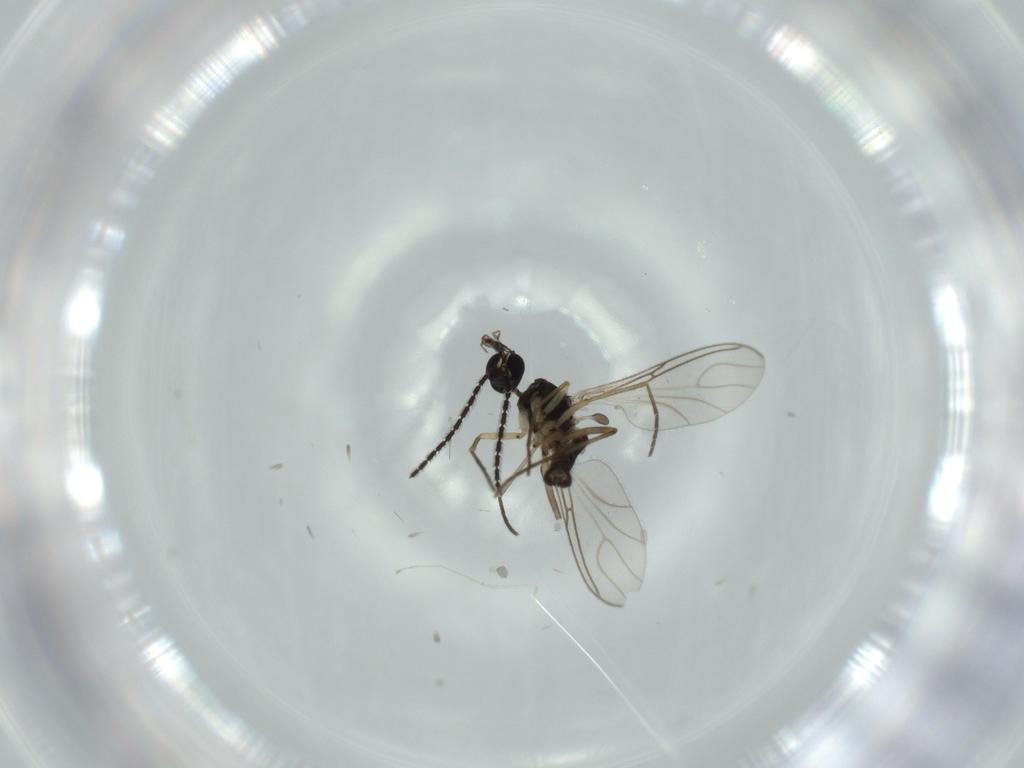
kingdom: Animalia
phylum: Arthropoda
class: Insecta
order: Diptera
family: Sciaridae
